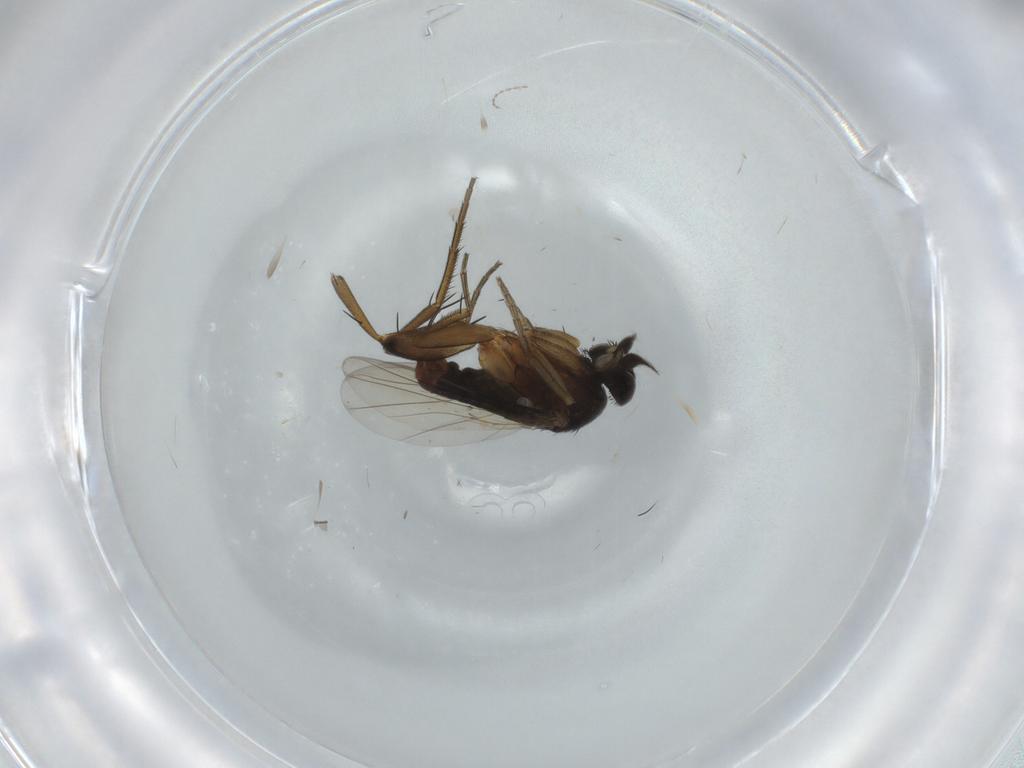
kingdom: Animalia
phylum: Arthropoda
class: Insecta
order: Diptera
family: Phoridae
